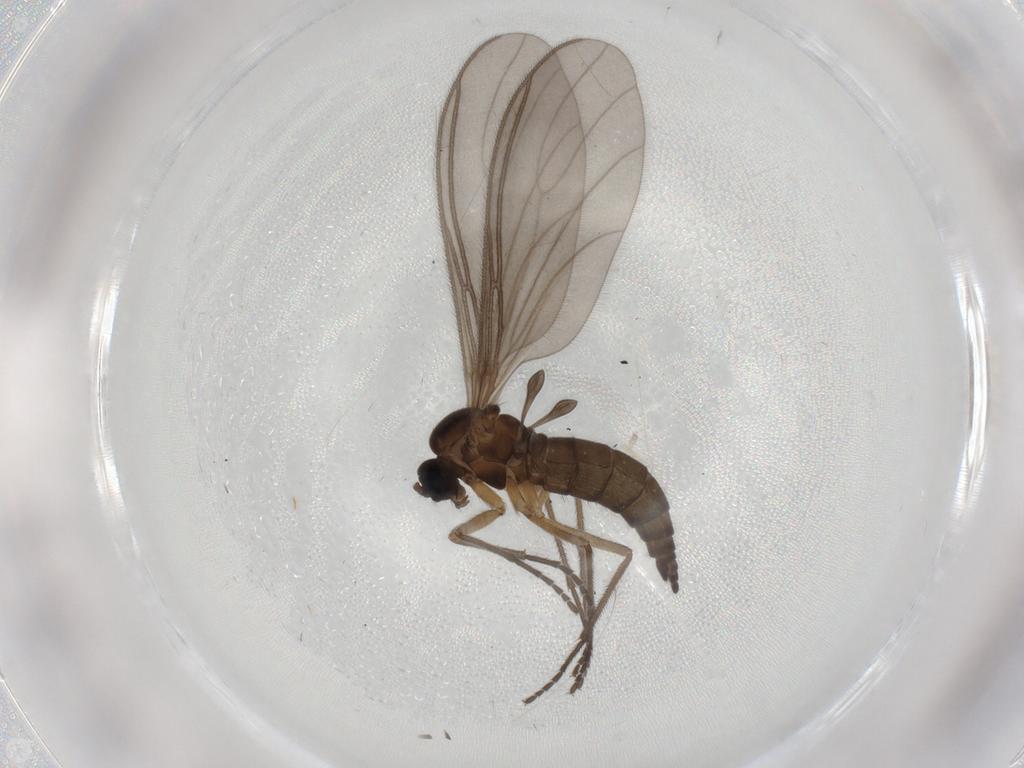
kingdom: Animalia
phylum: Arthropoda
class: Insecta
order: Diptera
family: Sciaridae
